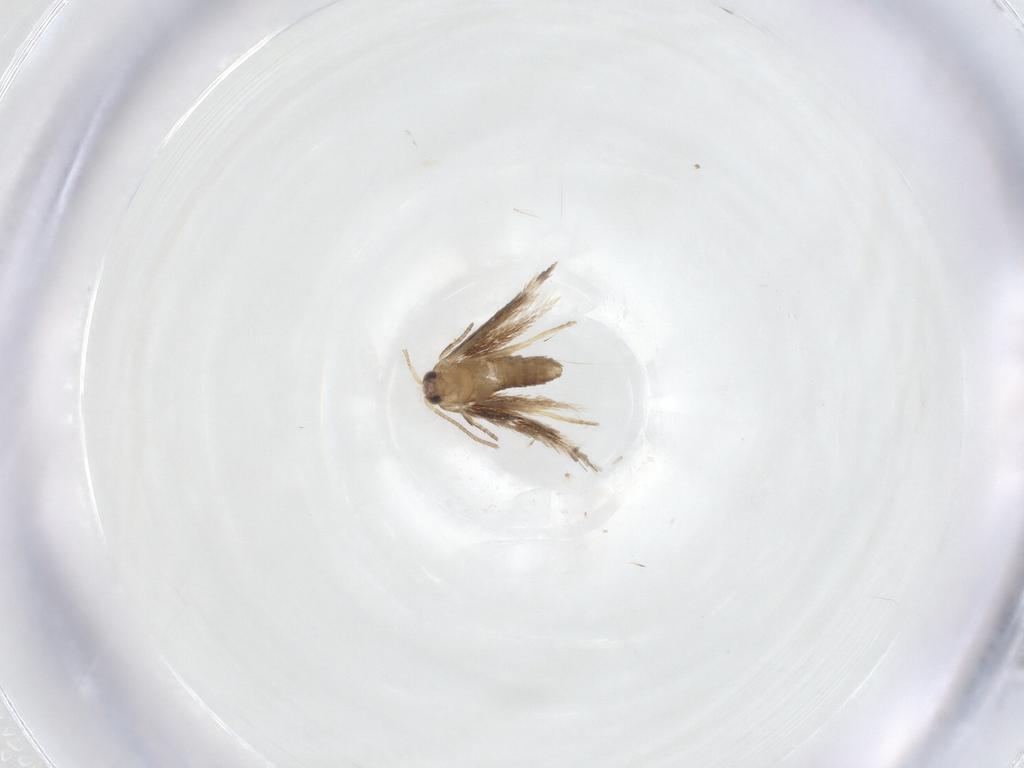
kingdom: Animalia
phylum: Arthropoda
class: Insecta
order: Lepidoptera
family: Nepticulidae
